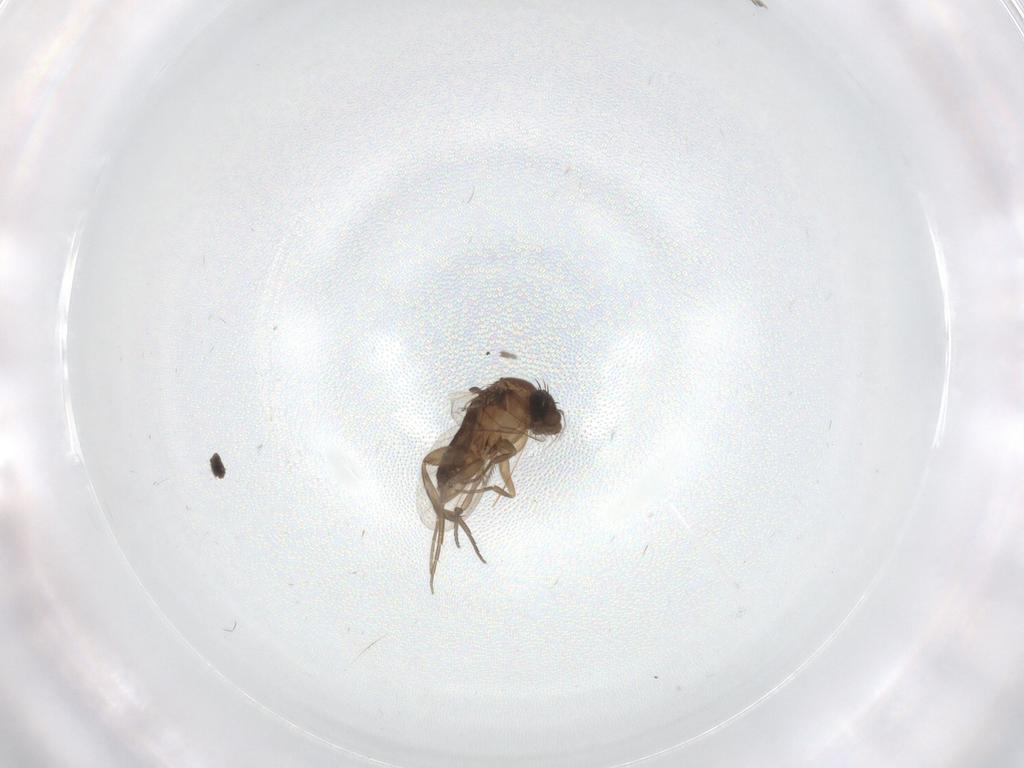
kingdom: Animalia
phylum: Arthropoda
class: Insecta
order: Diptera
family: Phoridae
